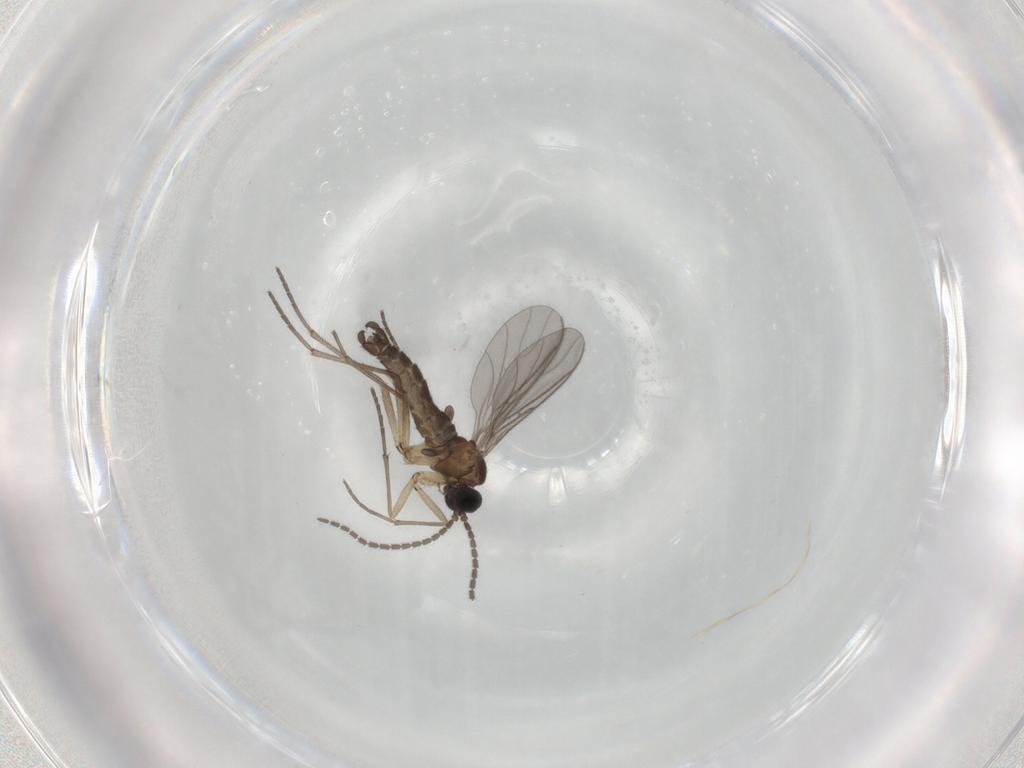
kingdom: Animalia
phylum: Arthropoda
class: Insecta
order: Diptera
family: Sciaridae
